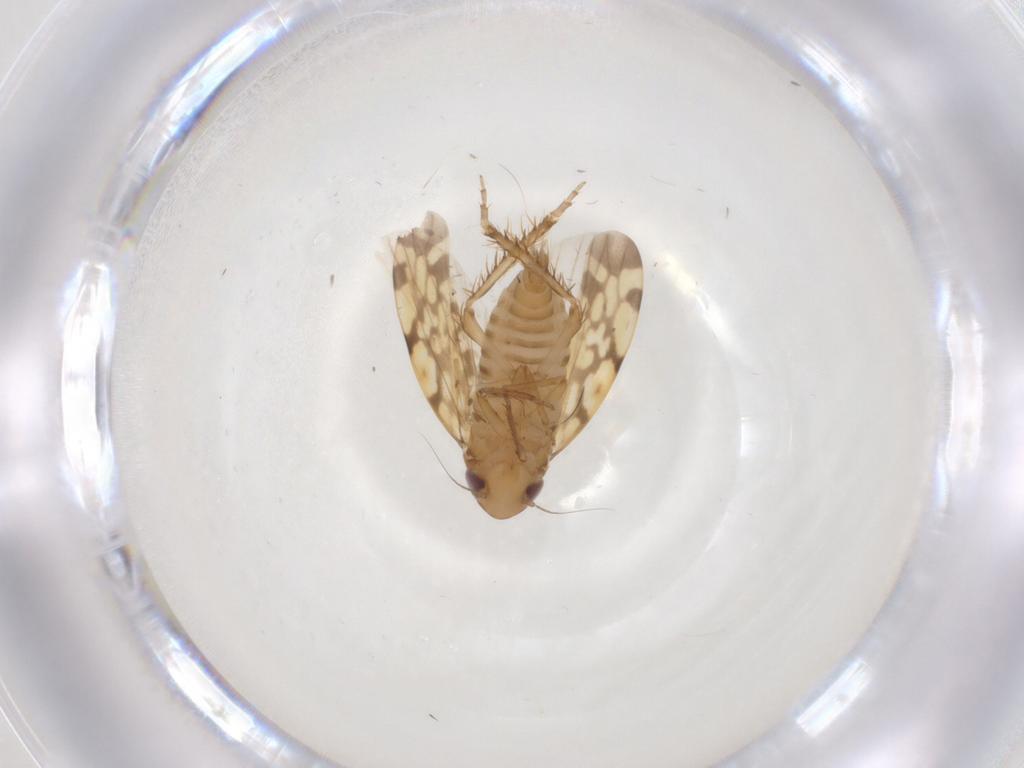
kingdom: Animalia
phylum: Arthropoda
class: Insecta
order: Hemiptera
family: Cicadellidae
